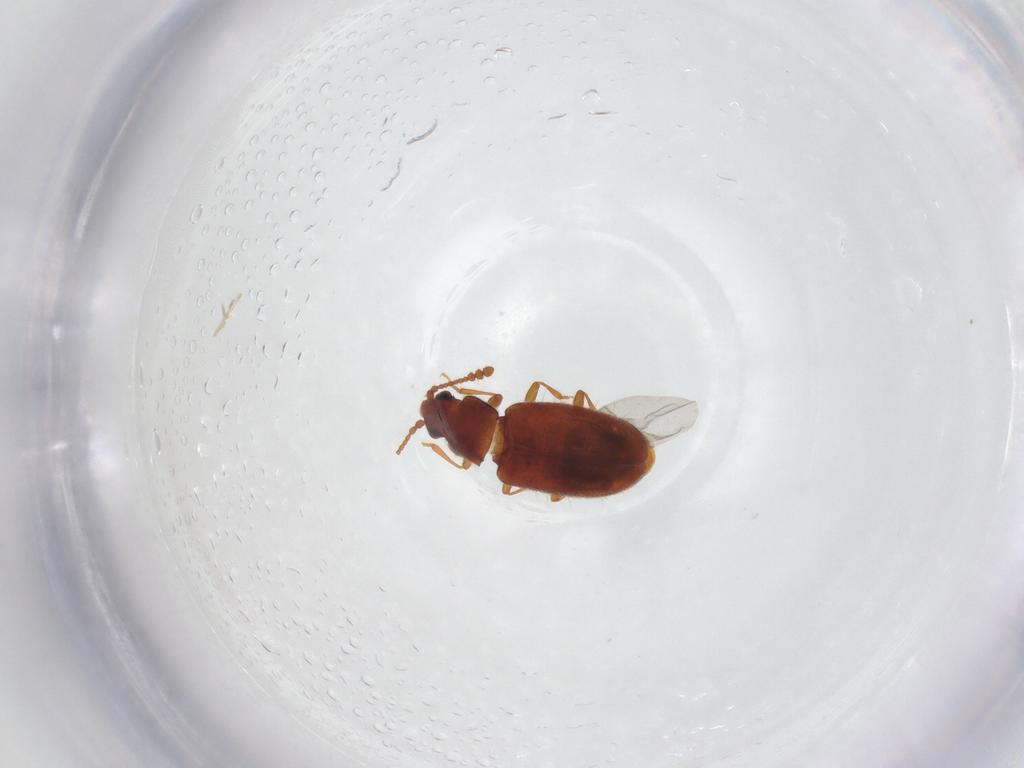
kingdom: Animalia
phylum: Arthropoda
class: Insecta
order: Coleoptera
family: Cryptophagidae
